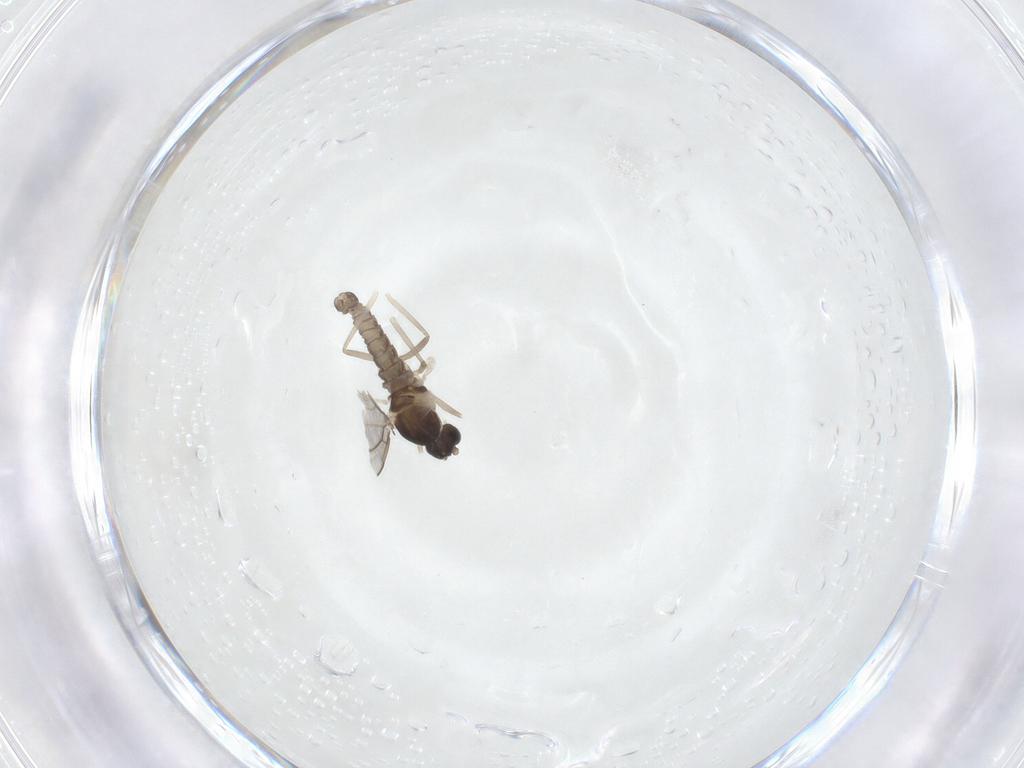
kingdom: Animalia
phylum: Arthropoda
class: Insecta
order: Diptera
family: Cecidomyiidae
